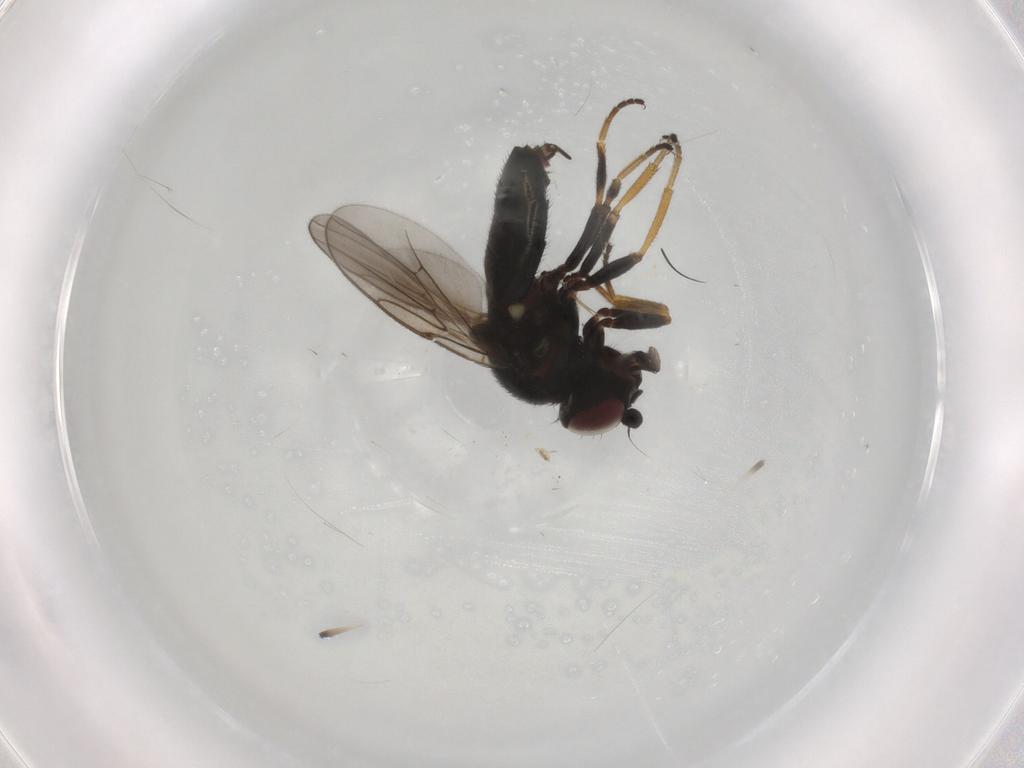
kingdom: Animalia
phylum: Arthropoda
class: Insecta
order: Diptera
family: Chloropidae
